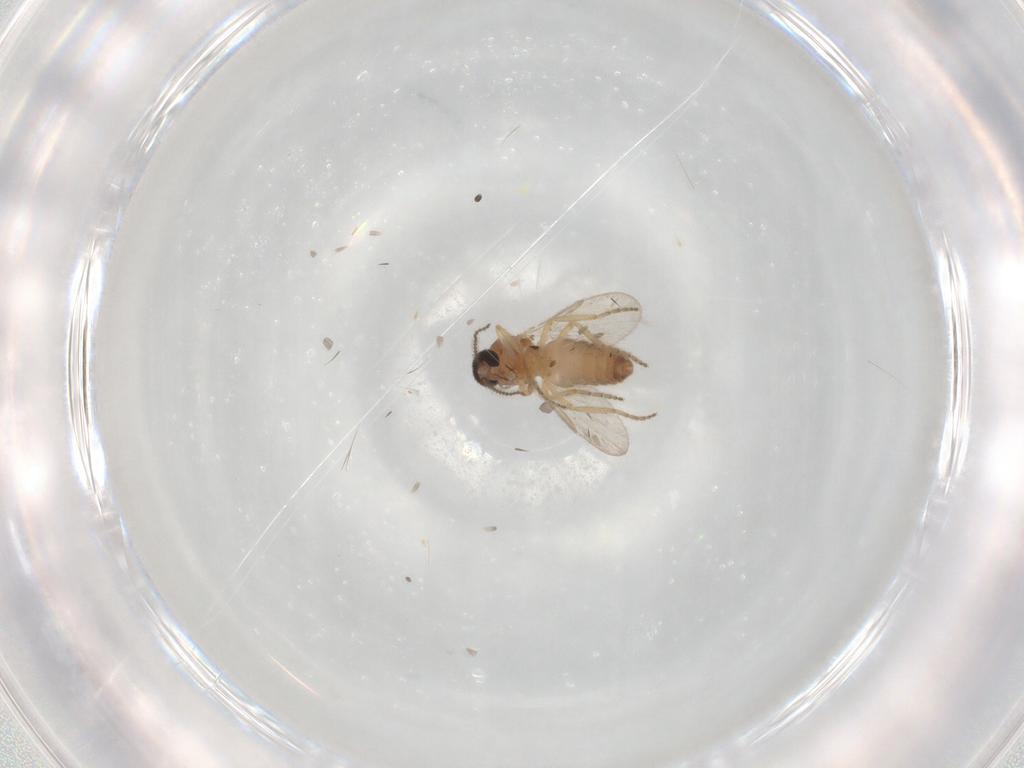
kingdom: Animalia
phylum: Arthropoda
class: Insecta
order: Diptera
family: Ceratopogonidae
